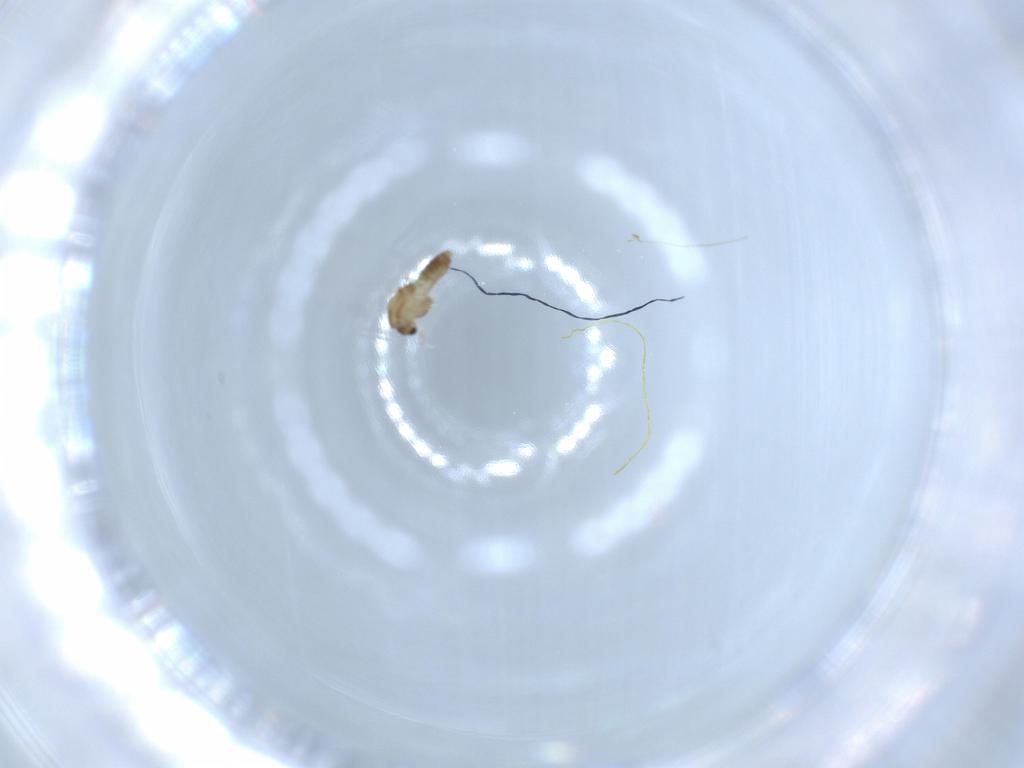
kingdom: Animalia
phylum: Arthropoda
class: Insecta
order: Diptera
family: Chironomidae
